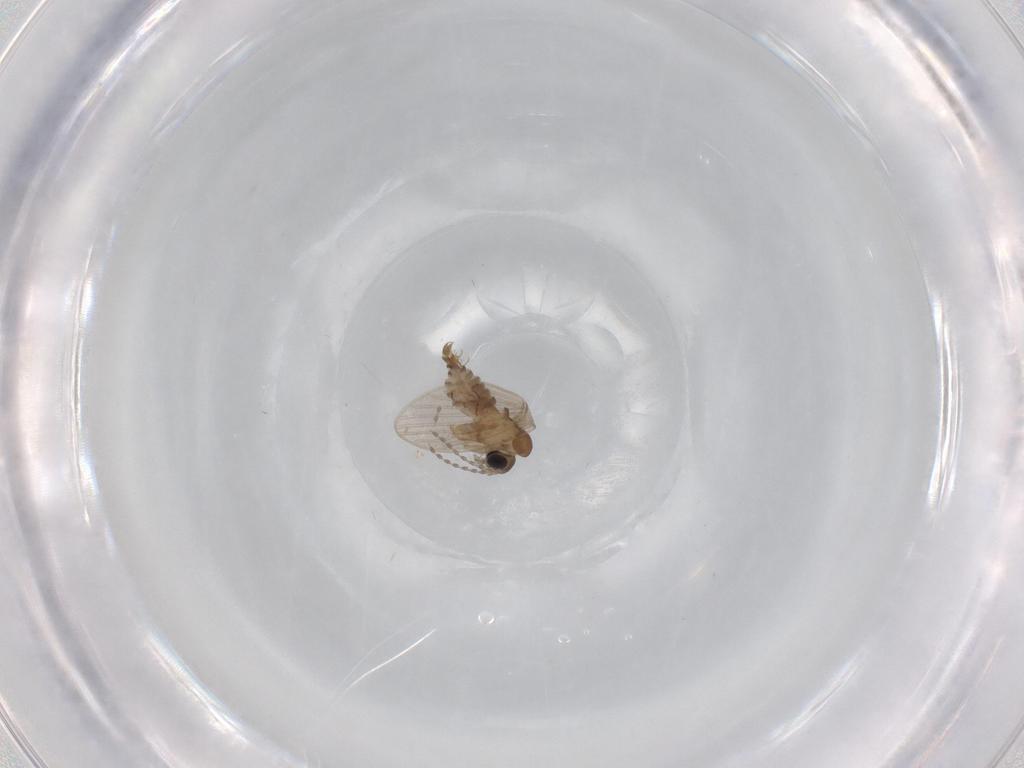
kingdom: Animalia
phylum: Arthropoda
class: Insecta
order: Diptera
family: Psychodidae
